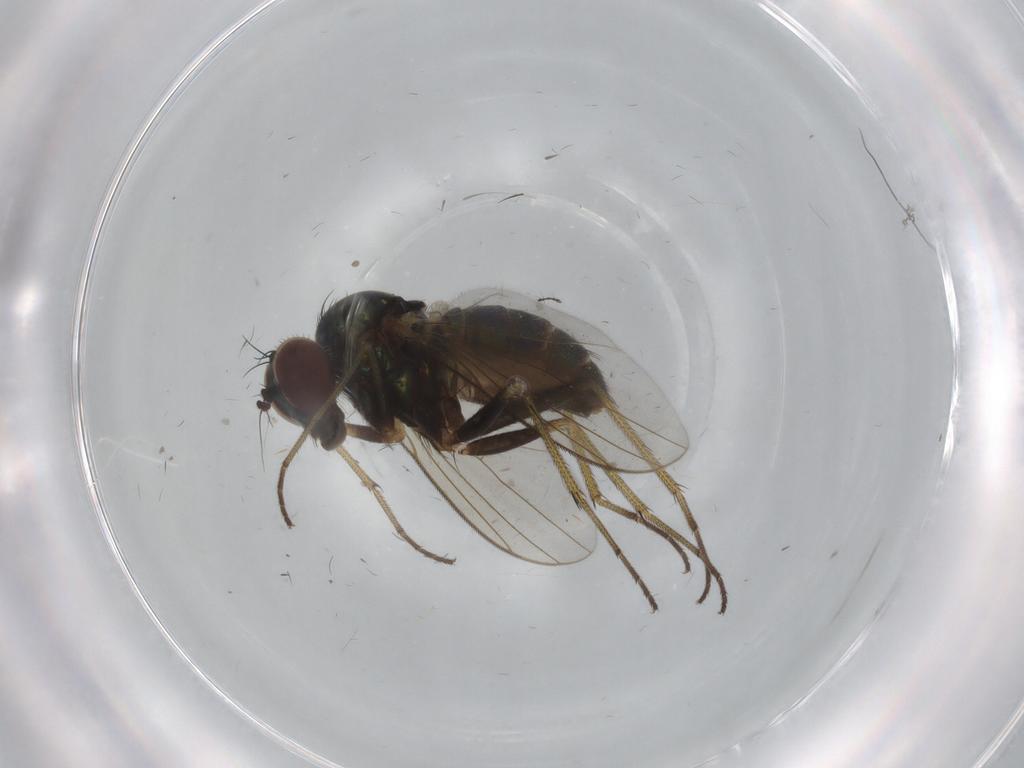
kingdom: Animalia
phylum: Arthropoda
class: Insecta
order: Diptera
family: Dolichopodidae
